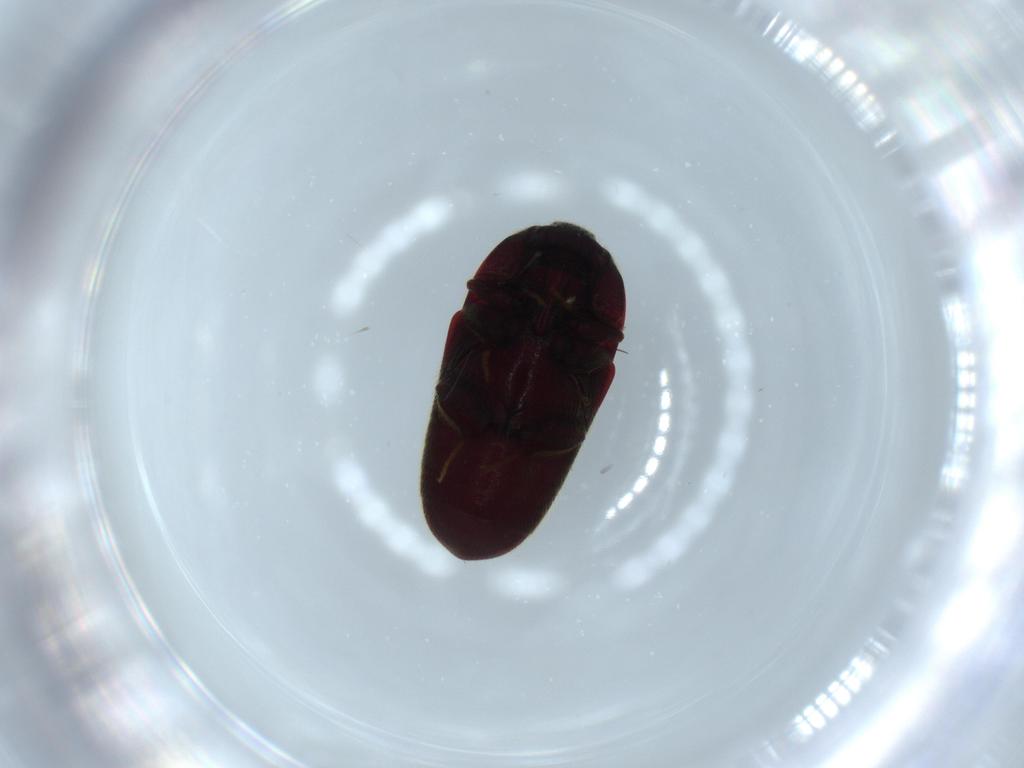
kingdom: Animalia
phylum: Arthropoda
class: Insecta
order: Coleoptera
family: Throscidae
